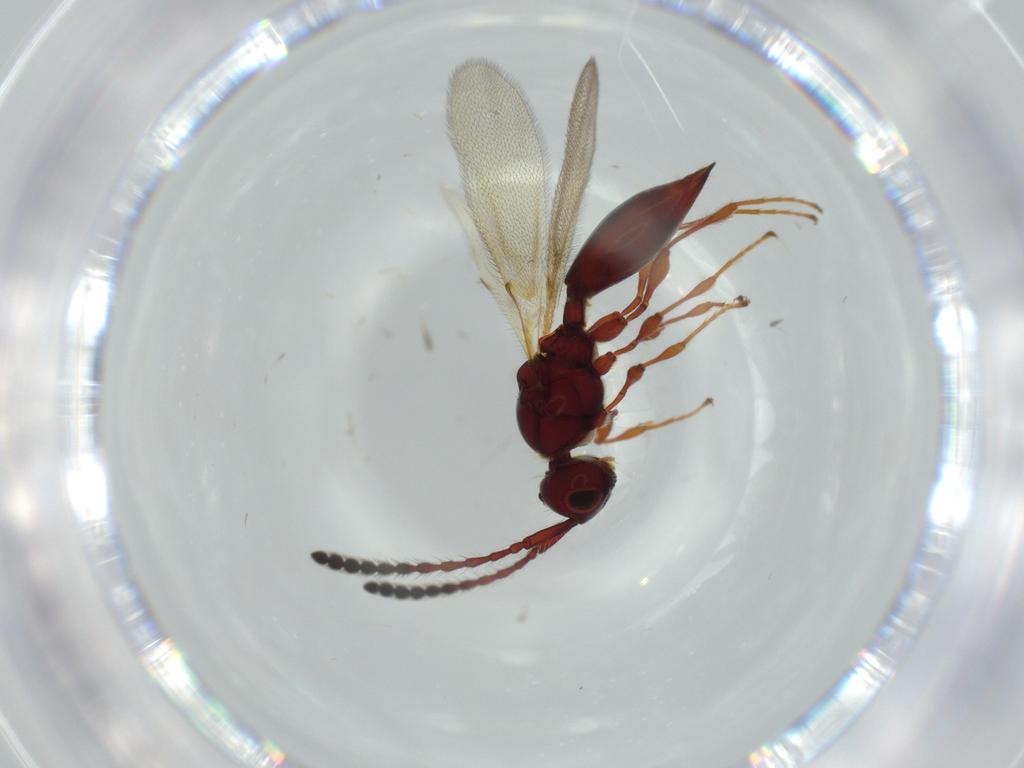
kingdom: Animalia
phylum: Arthropoda
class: Insecta
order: Hymenoptera
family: Diapriidae
